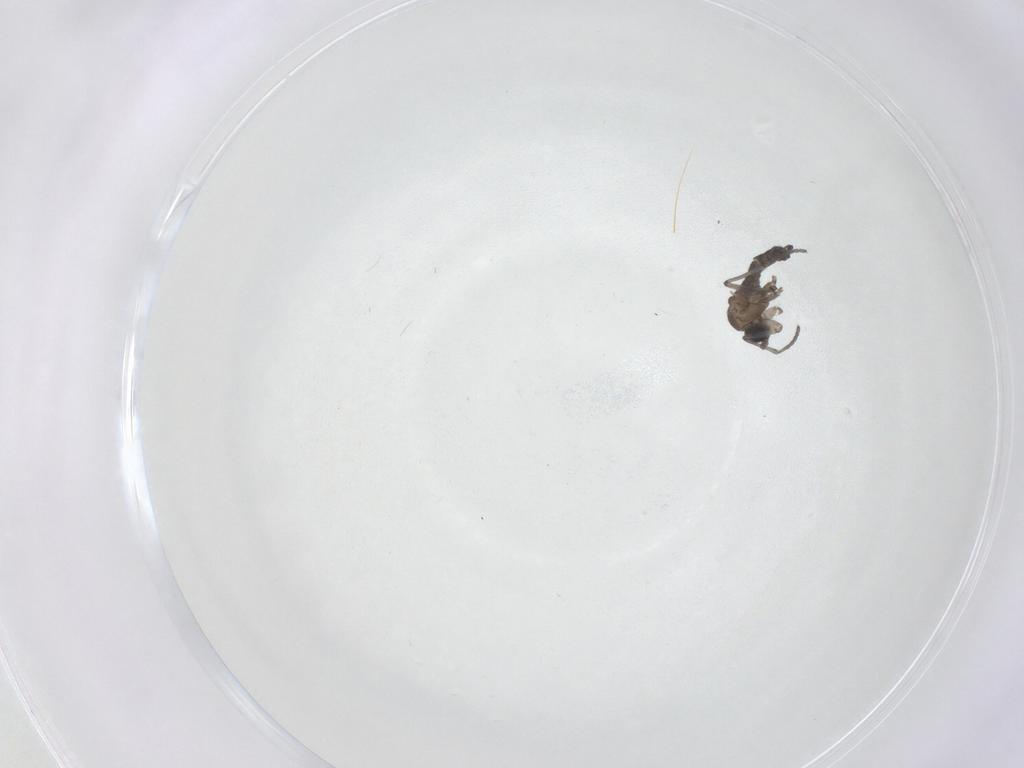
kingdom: Animalia
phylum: Arthropoda
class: Insecta
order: Diptera
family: Sciaridae
